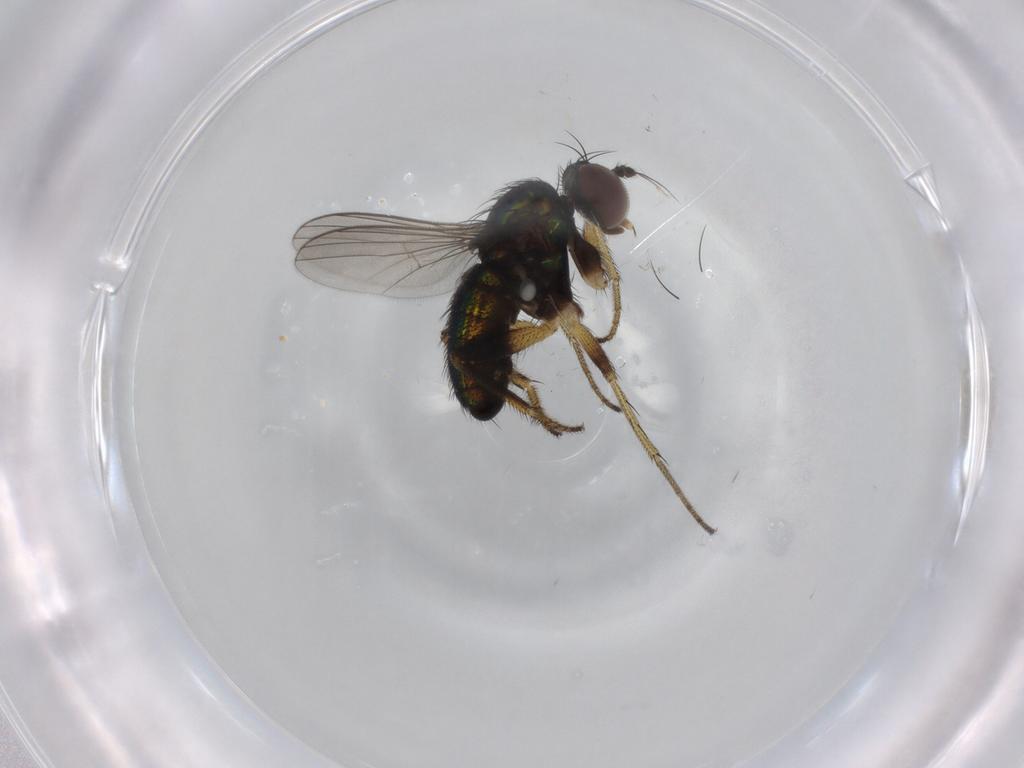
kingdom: Animalia
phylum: Arthropoda
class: Insecta
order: Diptera
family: Dolichopodidae
